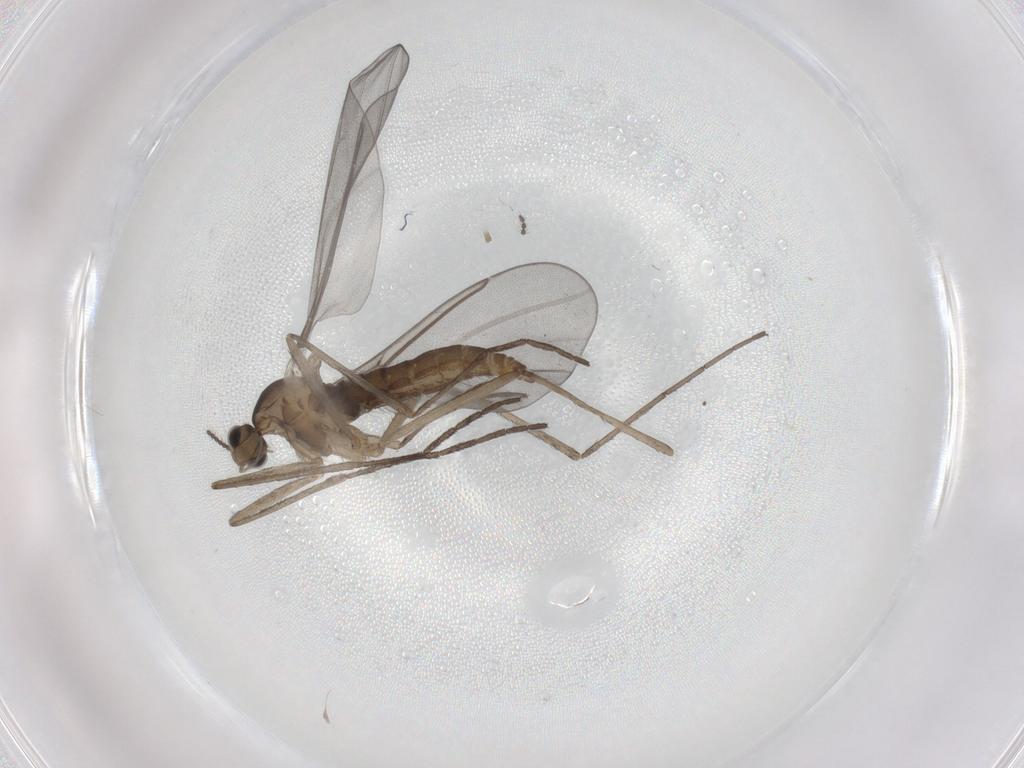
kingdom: Animalia
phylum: Arthropoda
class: Insecta
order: Diptera
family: Cecidomyiidae
